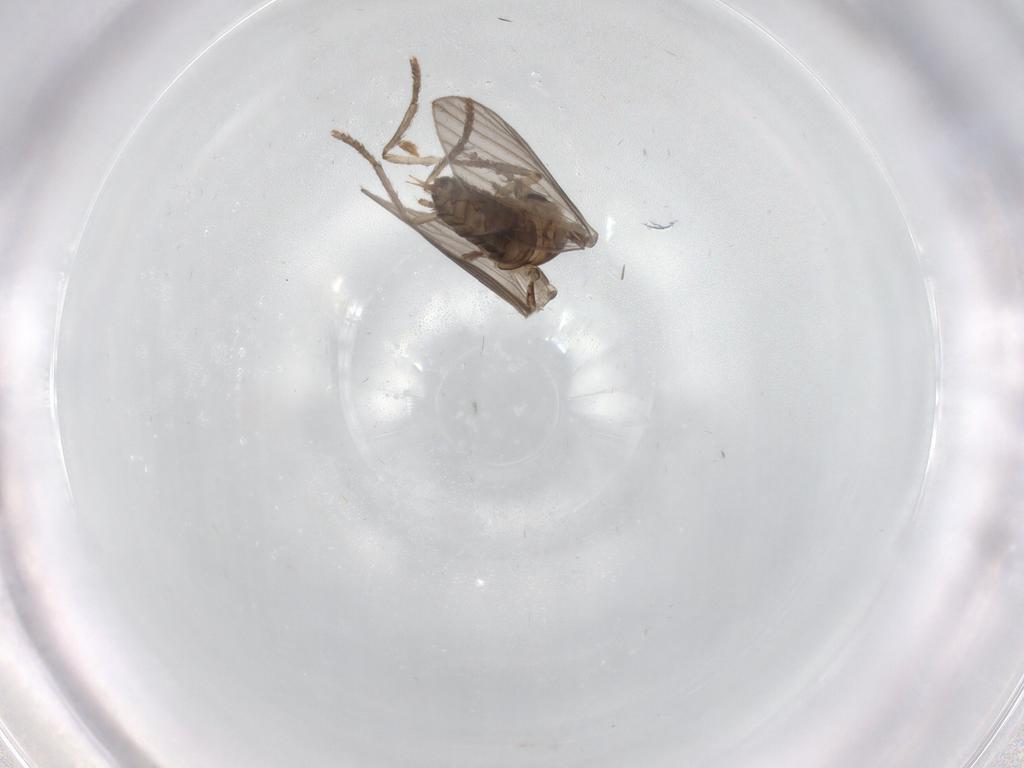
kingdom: Animalia
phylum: Arthropoda
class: Insecta
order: Diptera
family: Psychodidae
